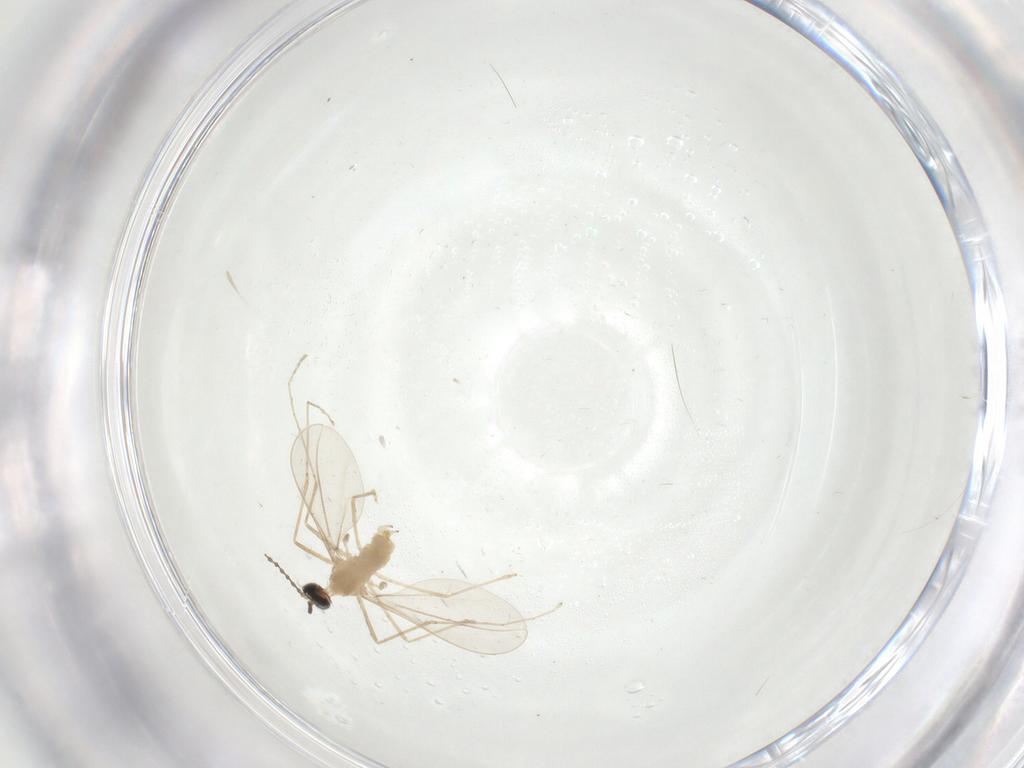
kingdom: Animalia
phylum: Arthropoda
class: Insecta
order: Diptera
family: Cecidomyiidae
